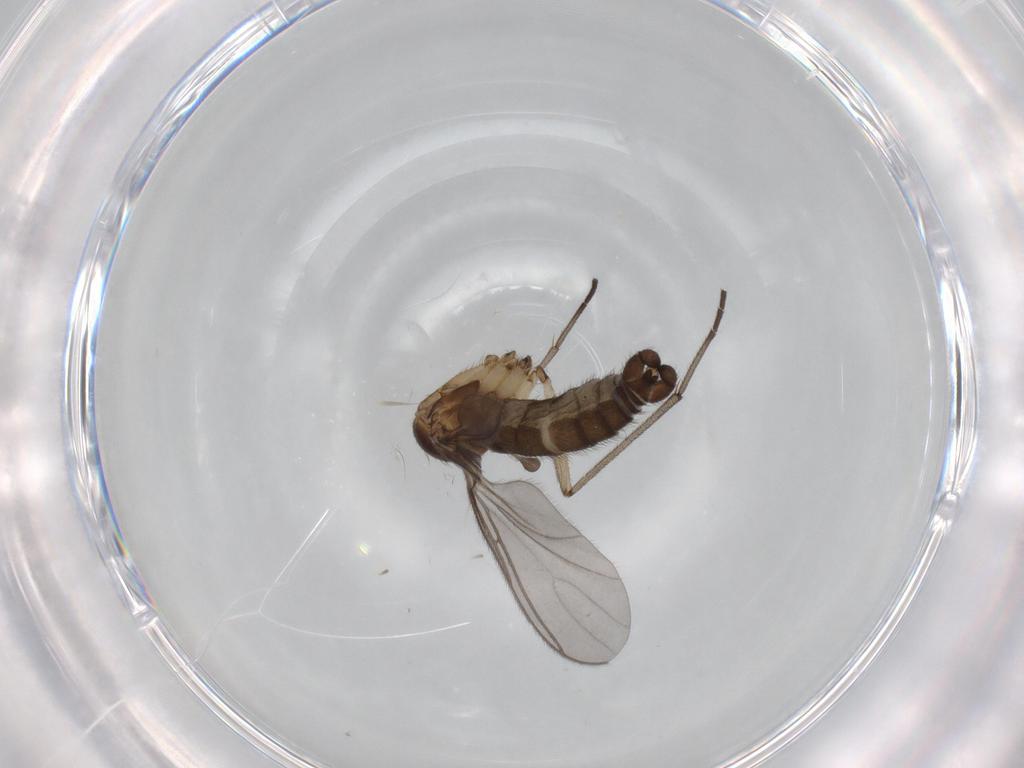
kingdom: Animalia
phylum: Arthropoda
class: Insecta
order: Diptera
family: Sciaridae
